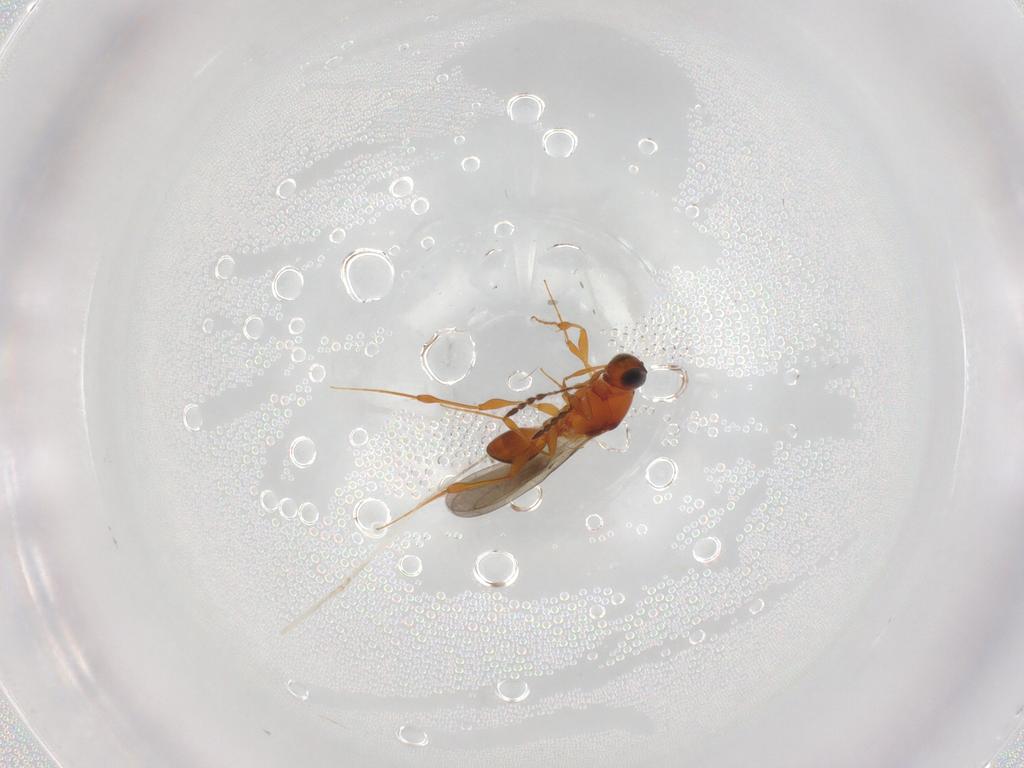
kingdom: Animalia
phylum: Arthropoda
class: Insecta
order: Hymenoptera
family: Platygastridae
